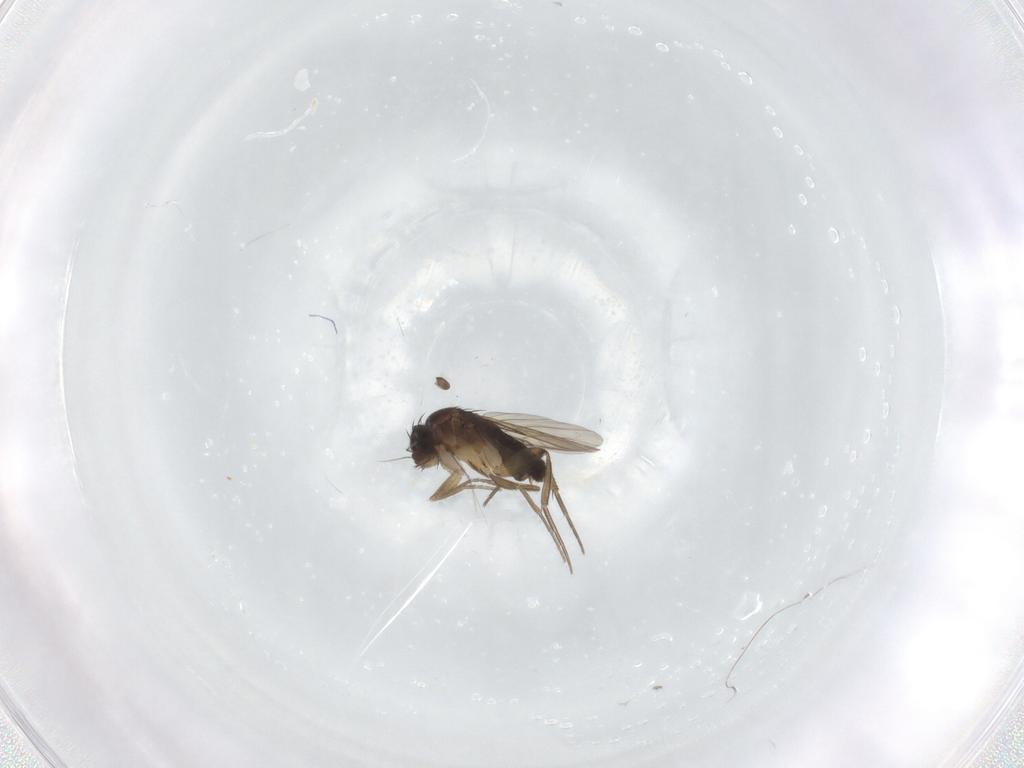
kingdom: Animalia
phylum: Arthropoda
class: Insecta
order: Diptera
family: Phoridae
